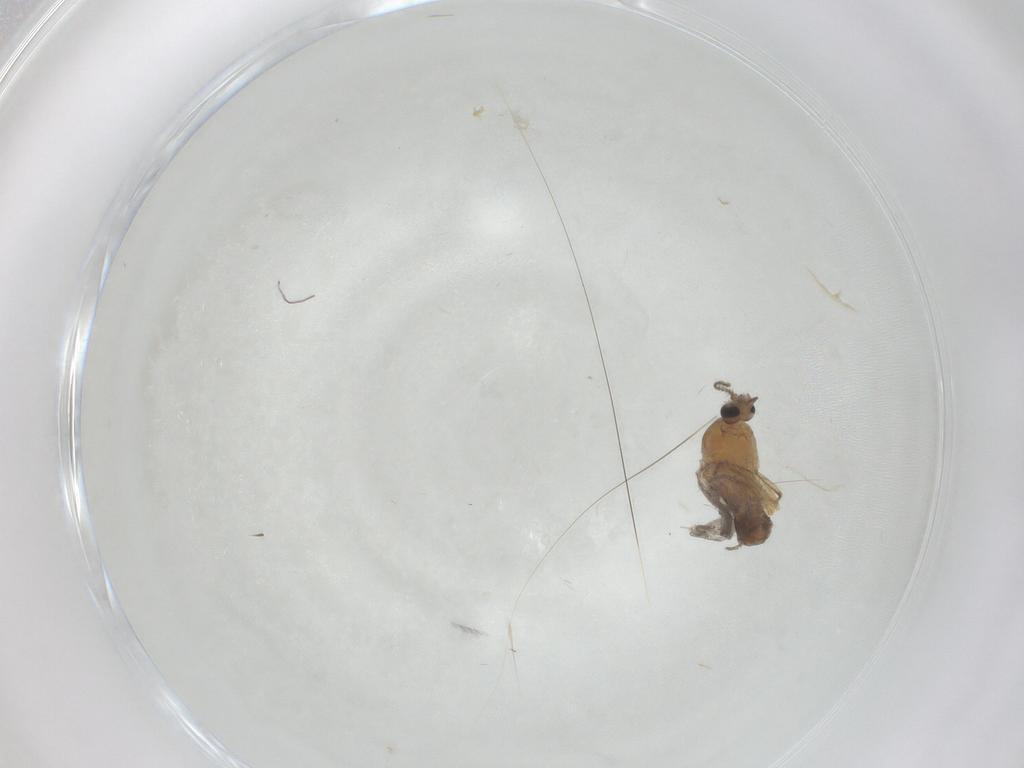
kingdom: Animalia
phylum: Arthropoda
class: Insecta
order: Diptera
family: Ceratopogonidae
